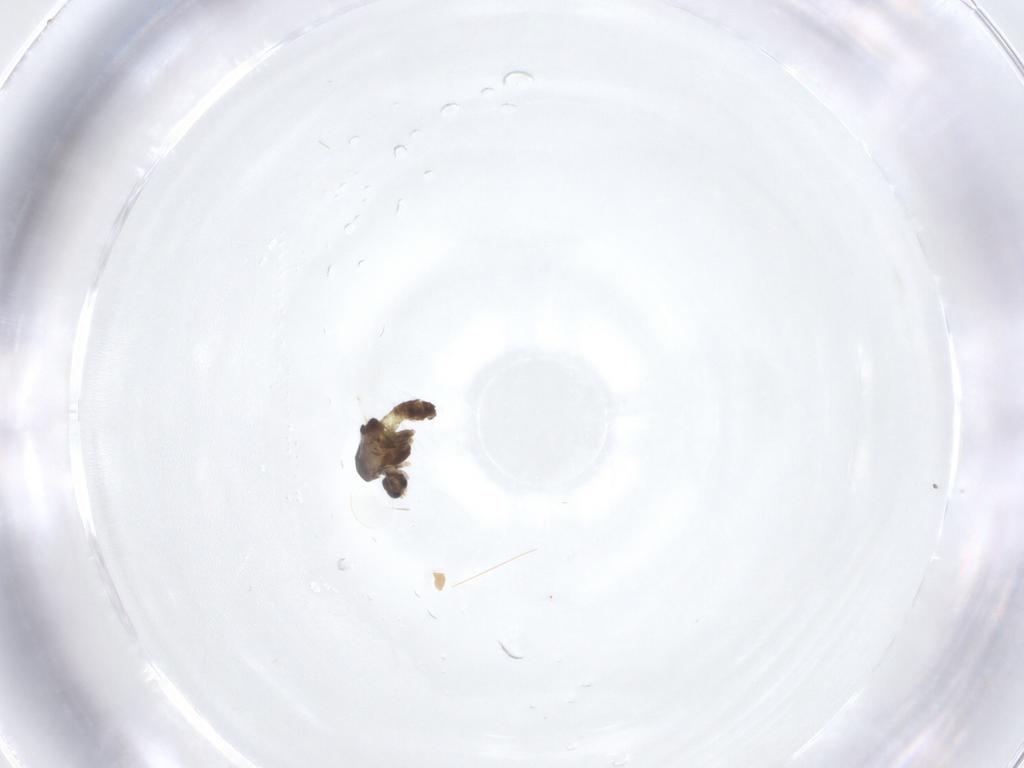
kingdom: Animalia
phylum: Arthropoda
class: Insecta
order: Diptera
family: Chironomidae
